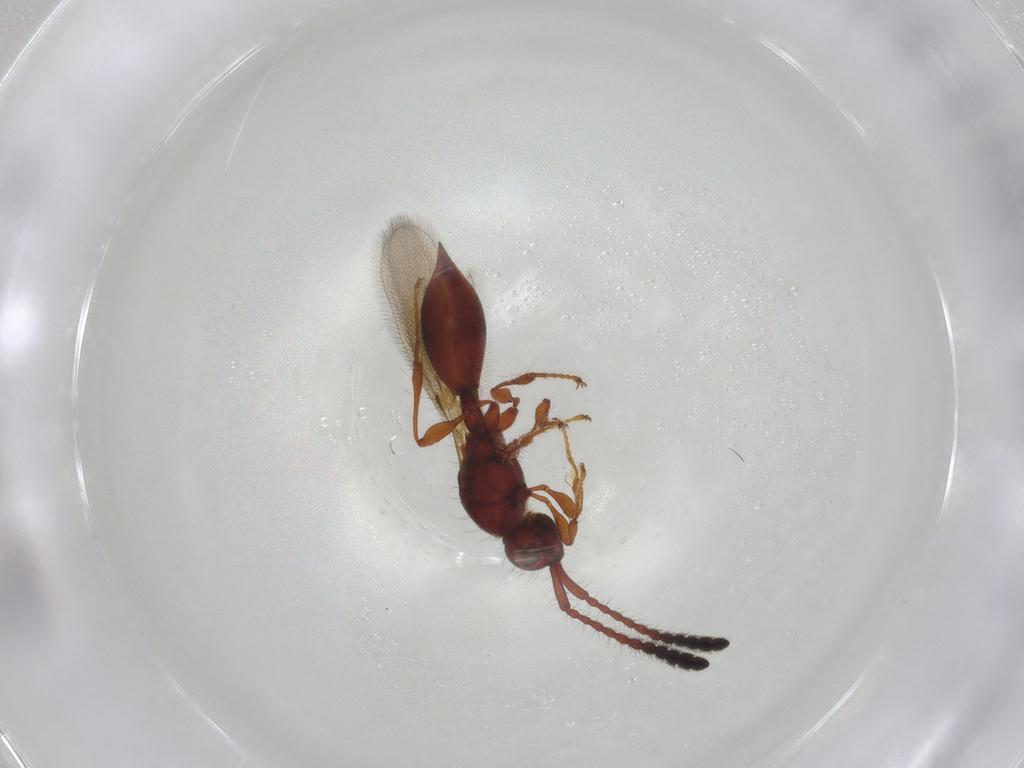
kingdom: Animalia
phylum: Arthropoda
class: Insecta
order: Hymenoptera
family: Diapriidae
